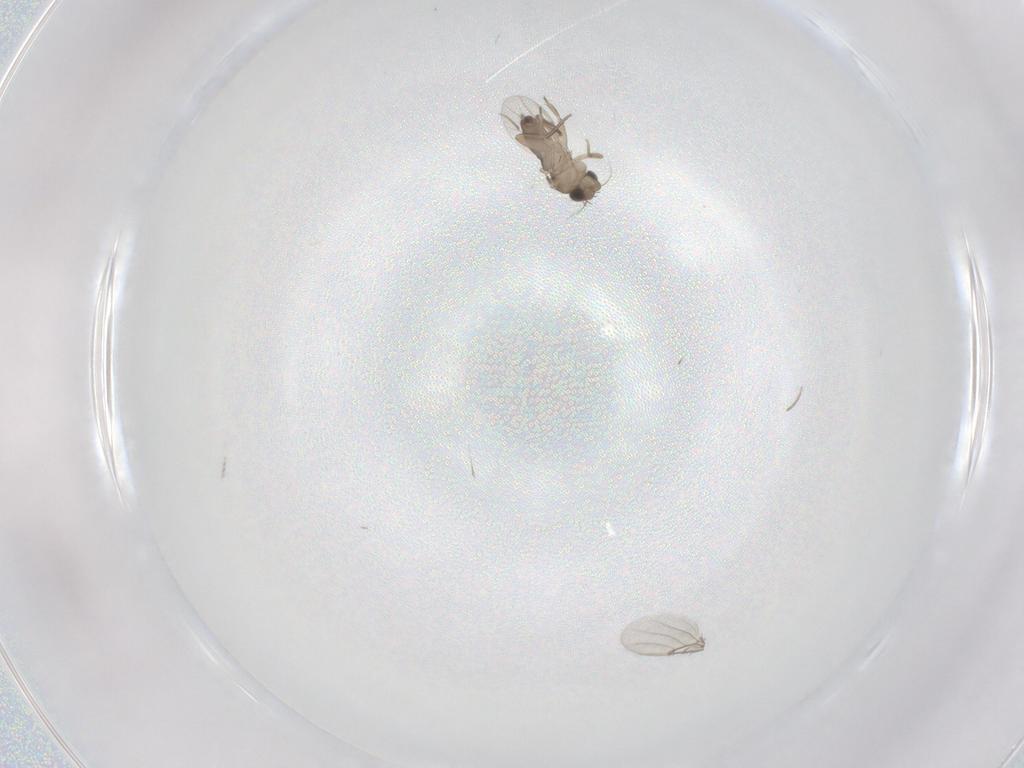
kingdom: Animalia
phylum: Arthropoda
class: Insecta
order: Diptera
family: Phoridae
